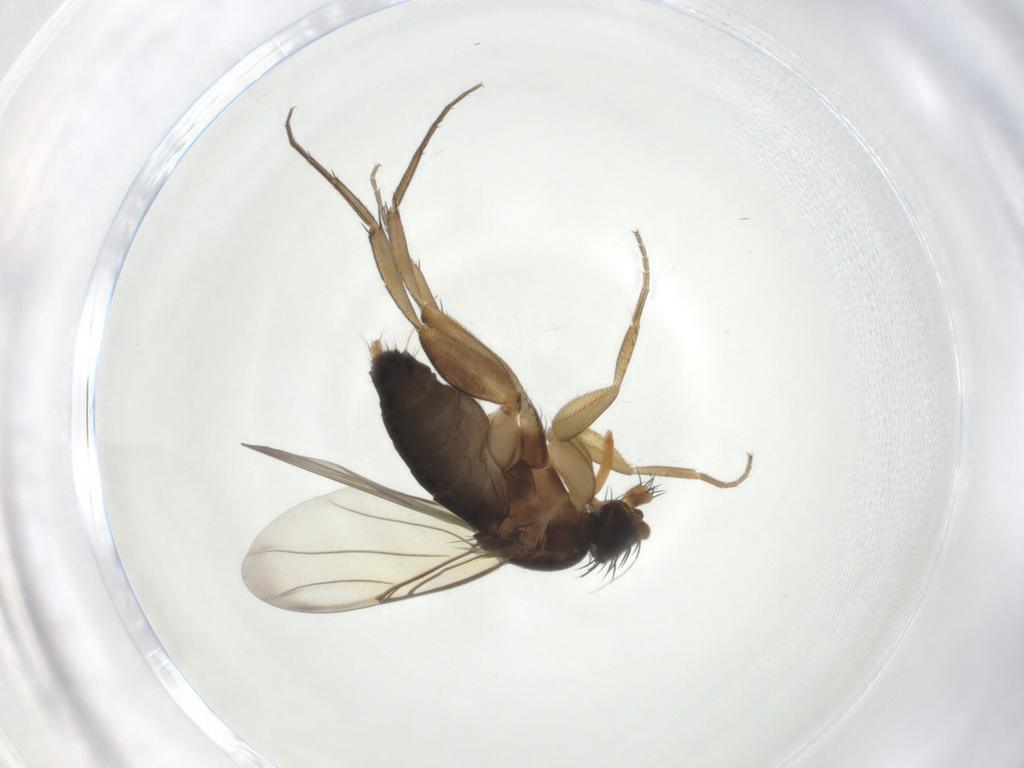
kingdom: Animalia
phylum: Arthropoda
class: Insecta
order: Diptera
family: Phoridae
